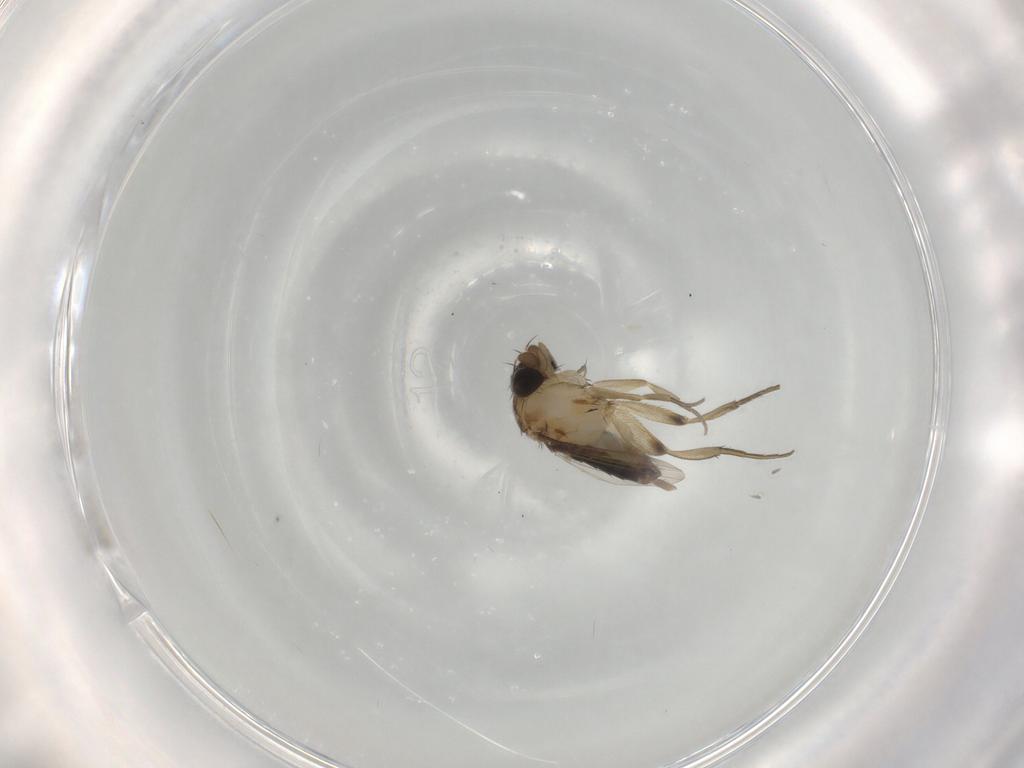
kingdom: Animalia
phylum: Arthropoda
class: Insecta
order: Diptera
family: Phoridae
